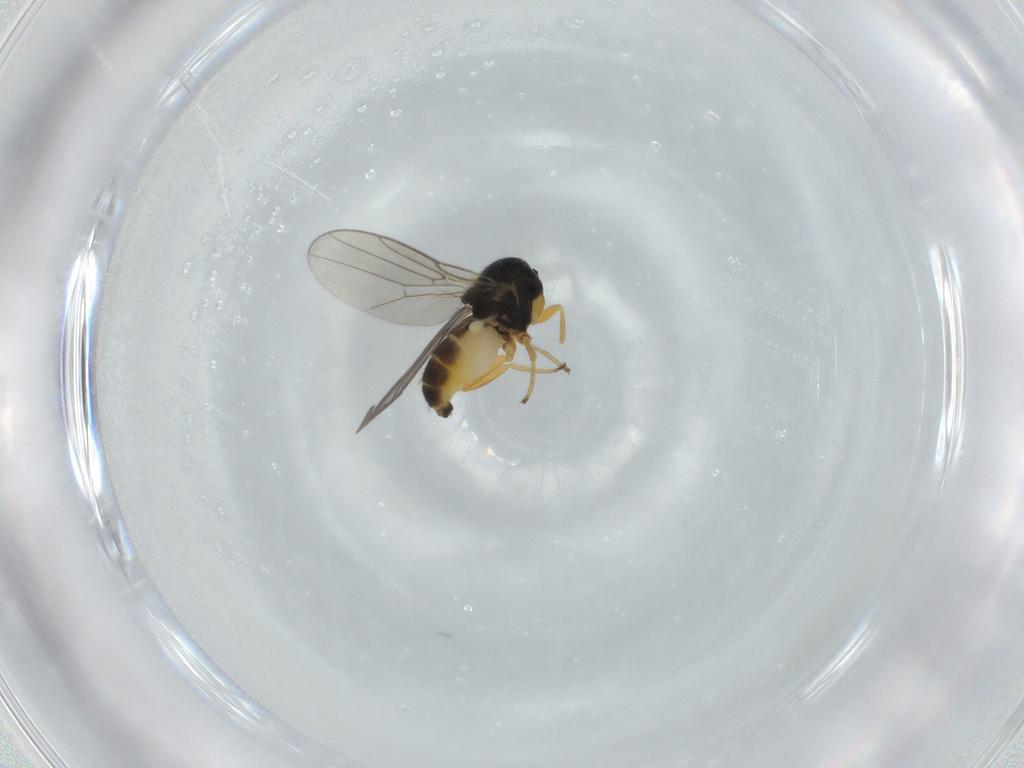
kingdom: Animalia
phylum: Arthropoda
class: Insecta
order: Diptera
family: Chloropidae
